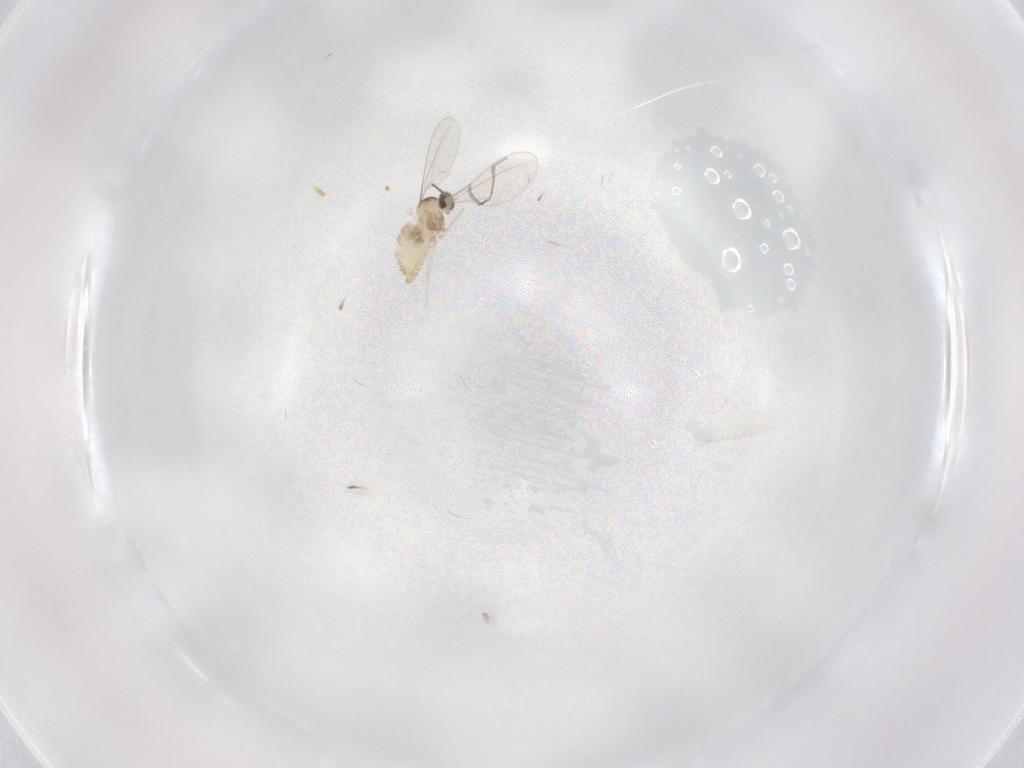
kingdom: Animalia
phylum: Arthropoda
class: Insecta
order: Diptera
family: Cecidomyiidae
